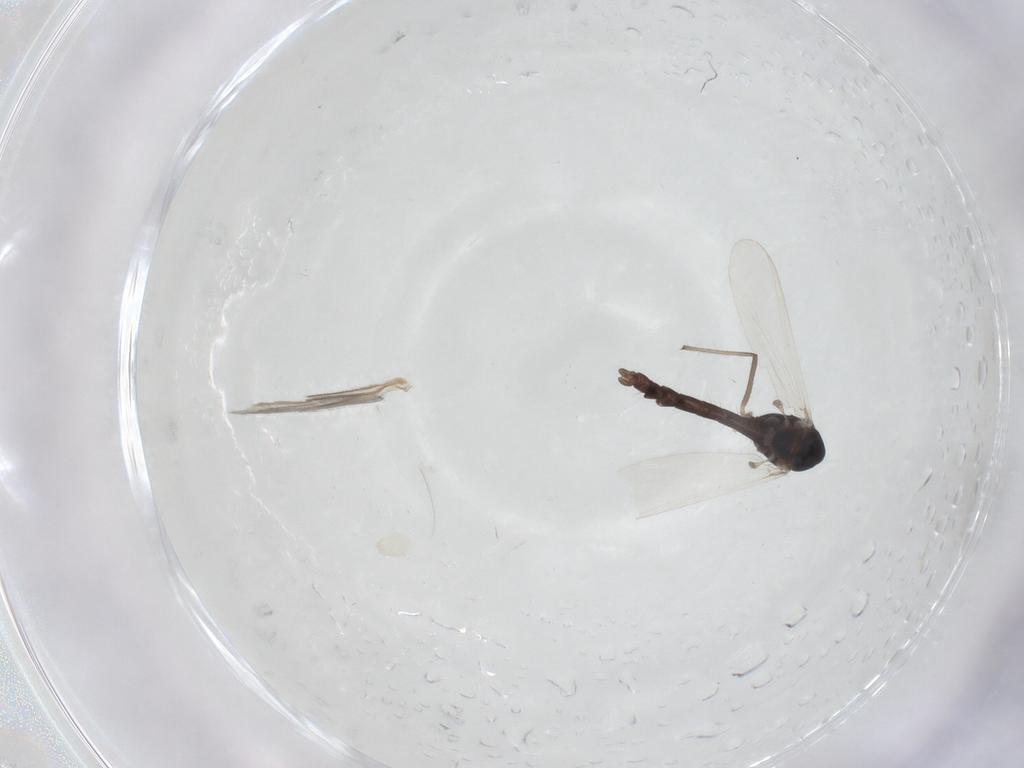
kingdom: Animalia
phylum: Arthropoda
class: Insecta
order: Diptera
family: Chironomidae
